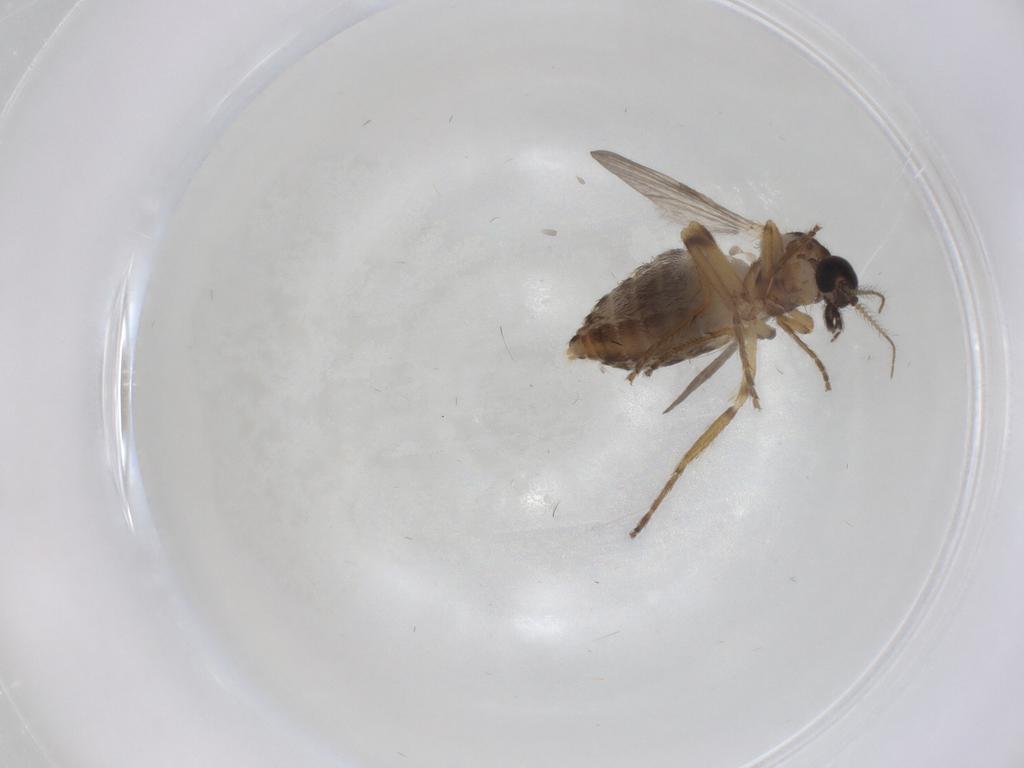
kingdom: Animalia
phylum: Arthropoda
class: Insecta
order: Diptera
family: Ceratopogonidae
